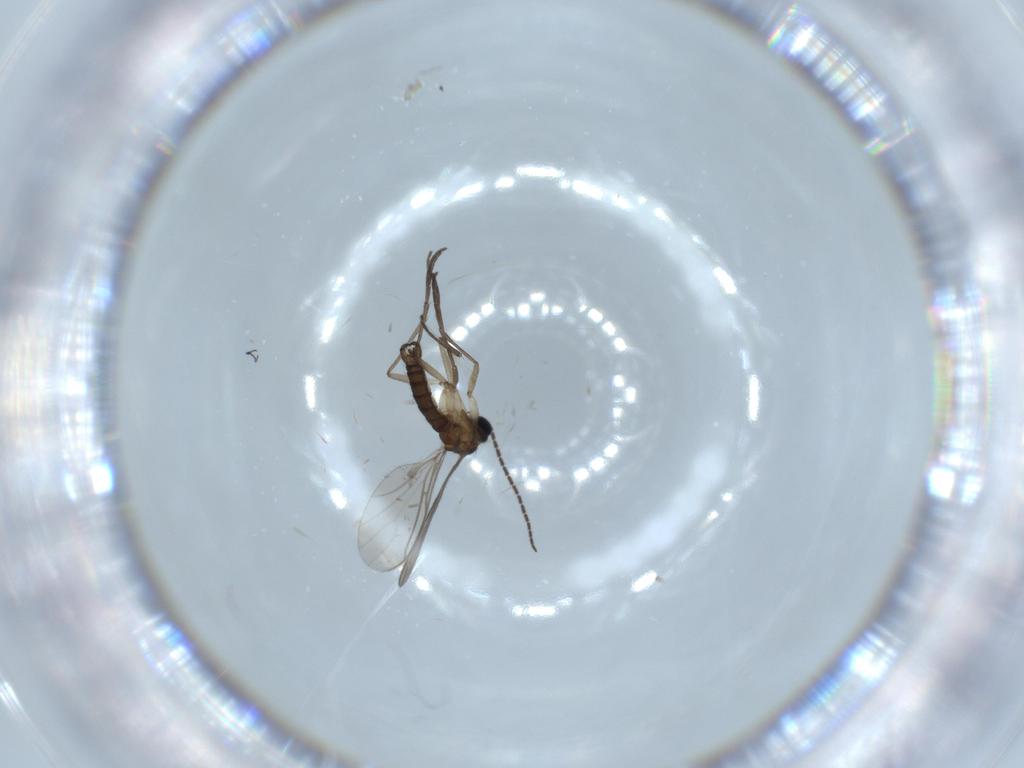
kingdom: Animalia
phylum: Arthropoda
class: Insecta
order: Diptera
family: Sciaridae
